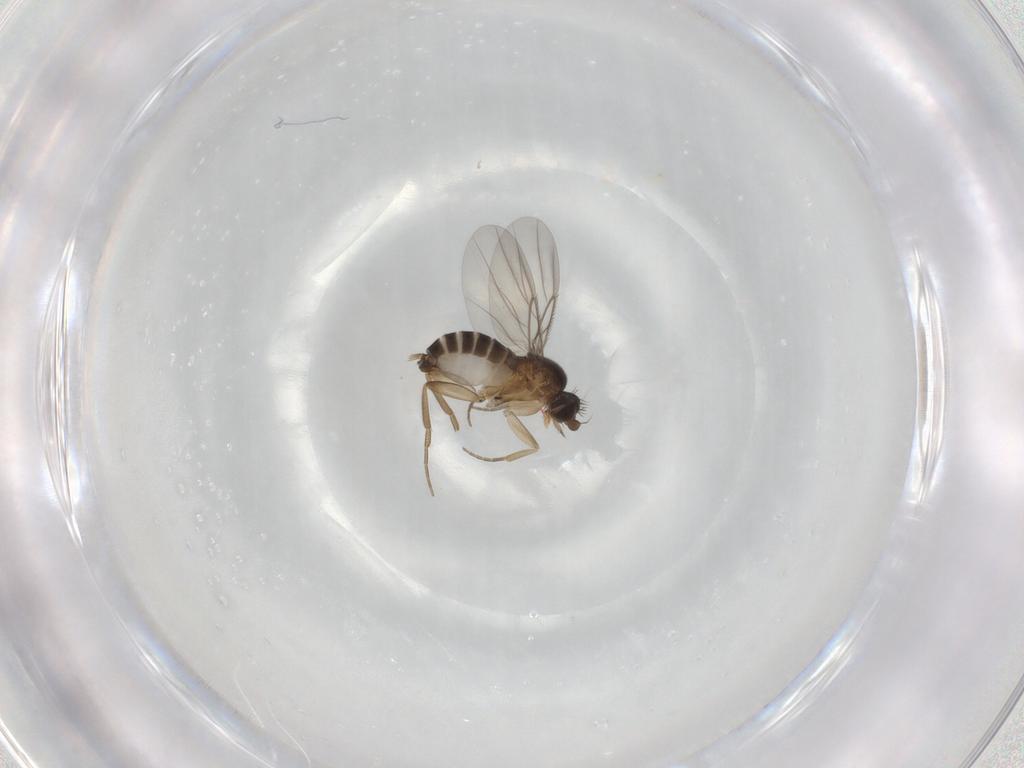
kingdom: Animalia
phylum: Arthropoda
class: Insecta
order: Diptera
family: Phoridae
